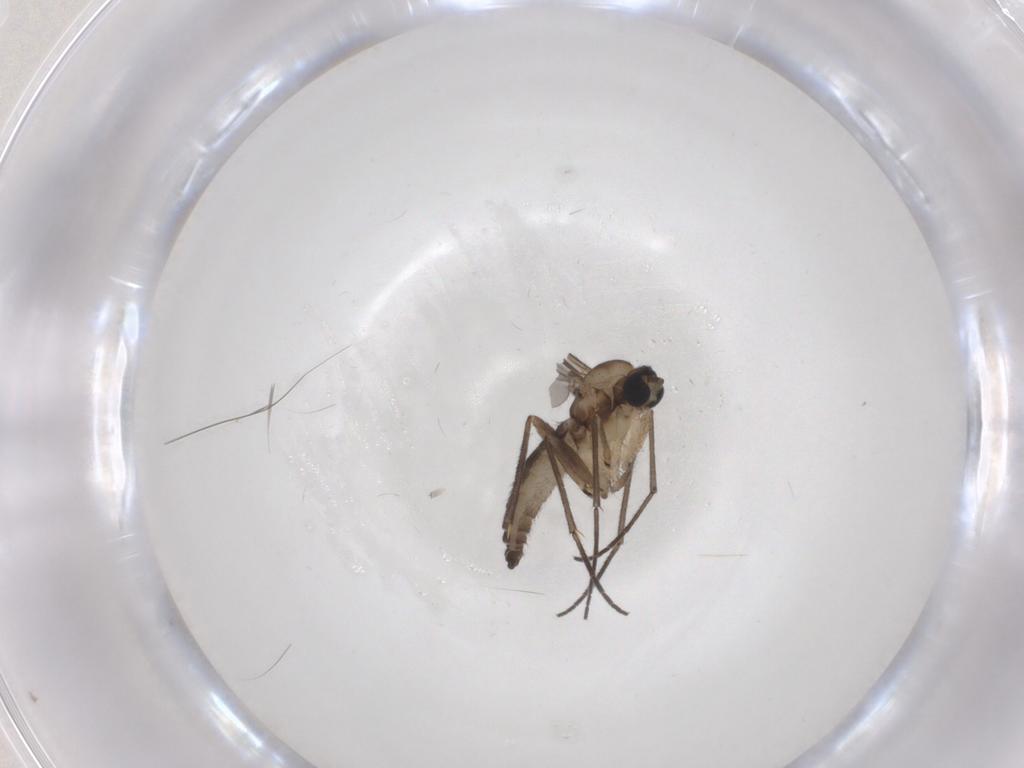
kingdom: Animalia
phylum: Arthropoda
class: Insecta
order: Diptera
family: Sciaridae
